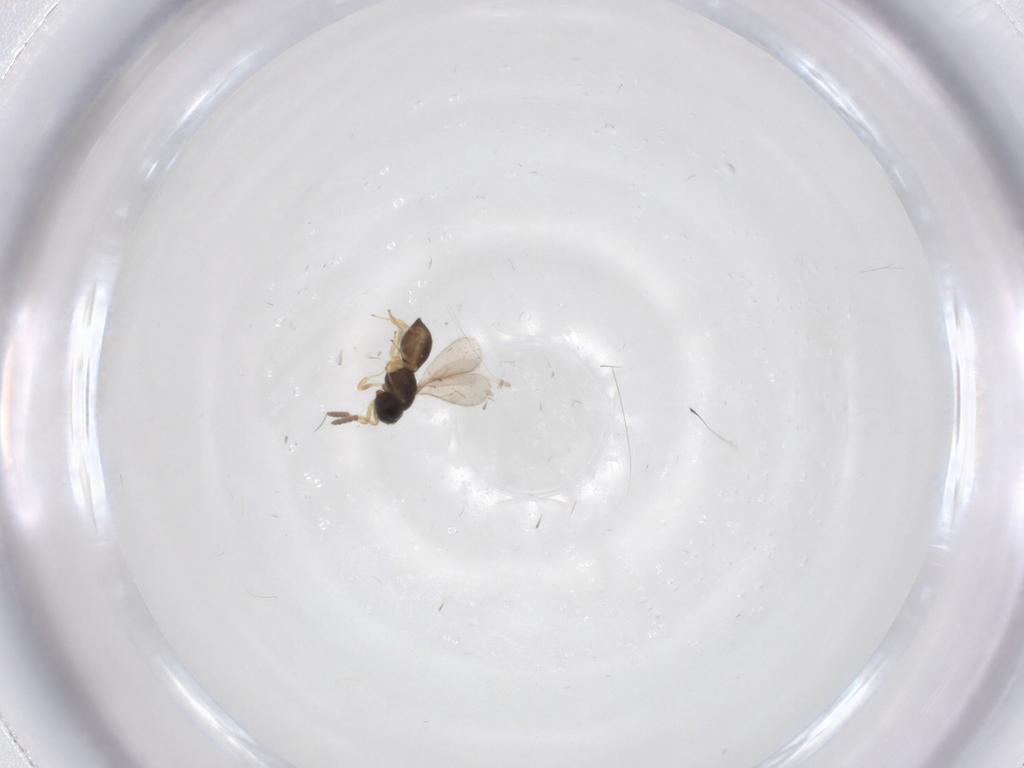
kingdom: Animalia
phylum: Arthropoda
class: Insecta
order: Hymenoptera
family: Scelionidae
